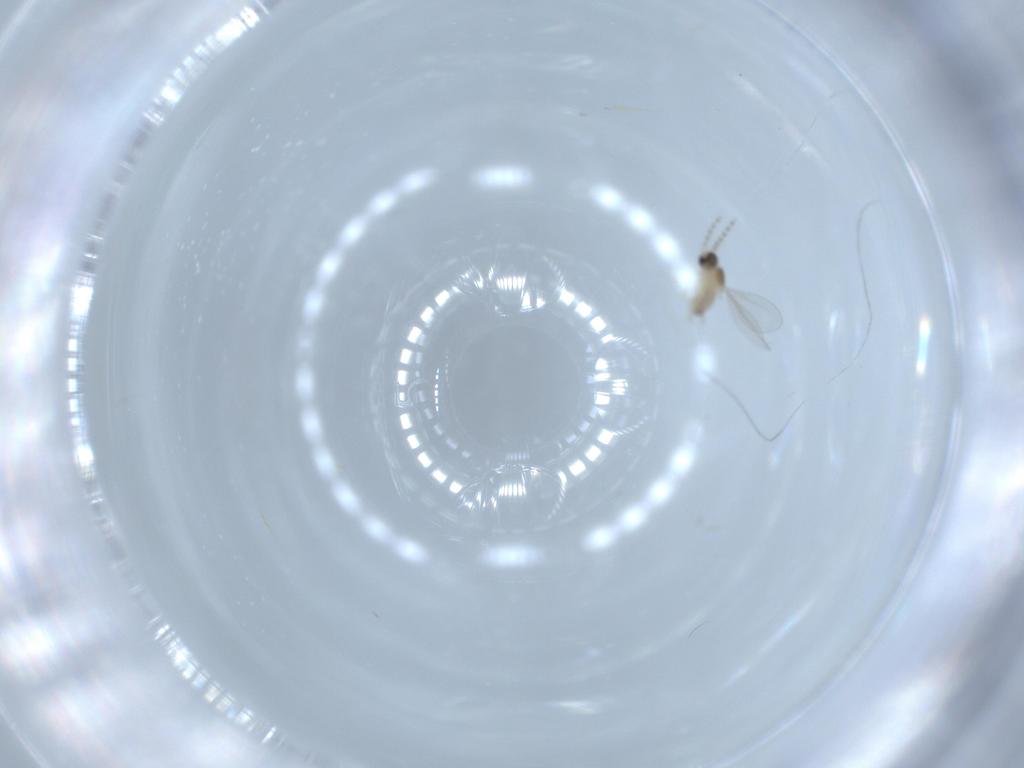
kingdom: Animalia
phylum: Arthropoda
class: Insecta
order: Diptera
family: Cecidomyiidae
